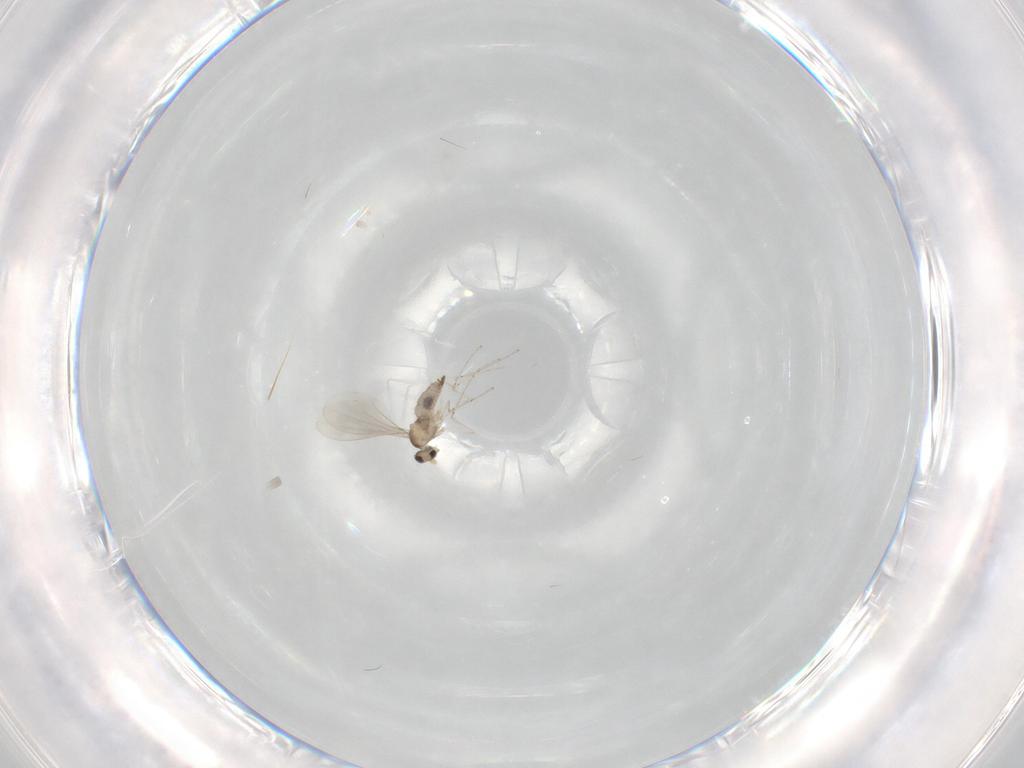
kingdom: Animalia
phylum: Arthropoda
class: Insecta
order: Diptera
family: Cecidomyiidae
